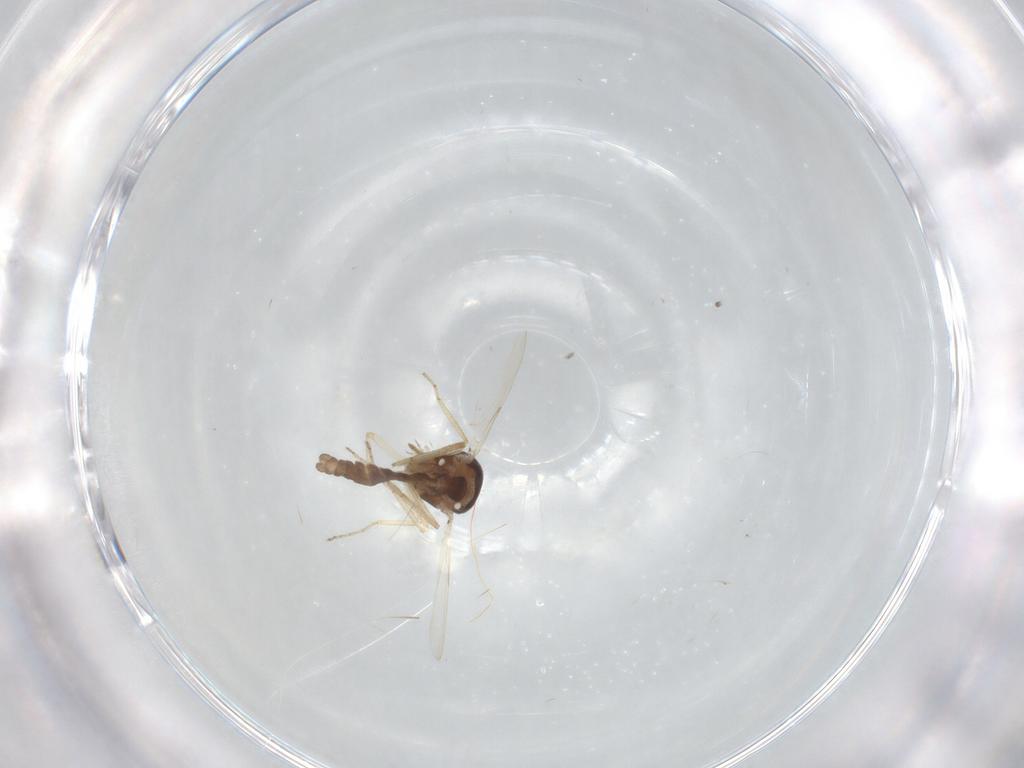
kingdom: Animalia
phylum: Arthropoda
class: Insecta
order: Diptera
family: Ceratopogonidae
